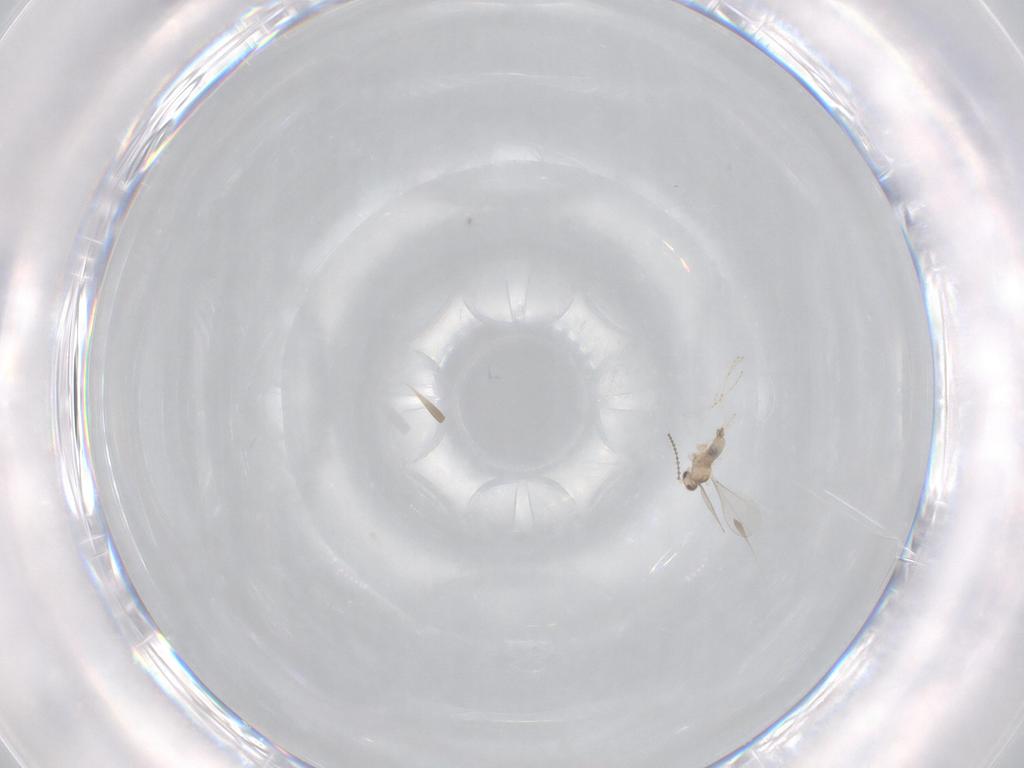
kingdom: Animalia
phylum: Arthropoda
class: Insecta
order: Diptera
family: Cecidomyiidae
